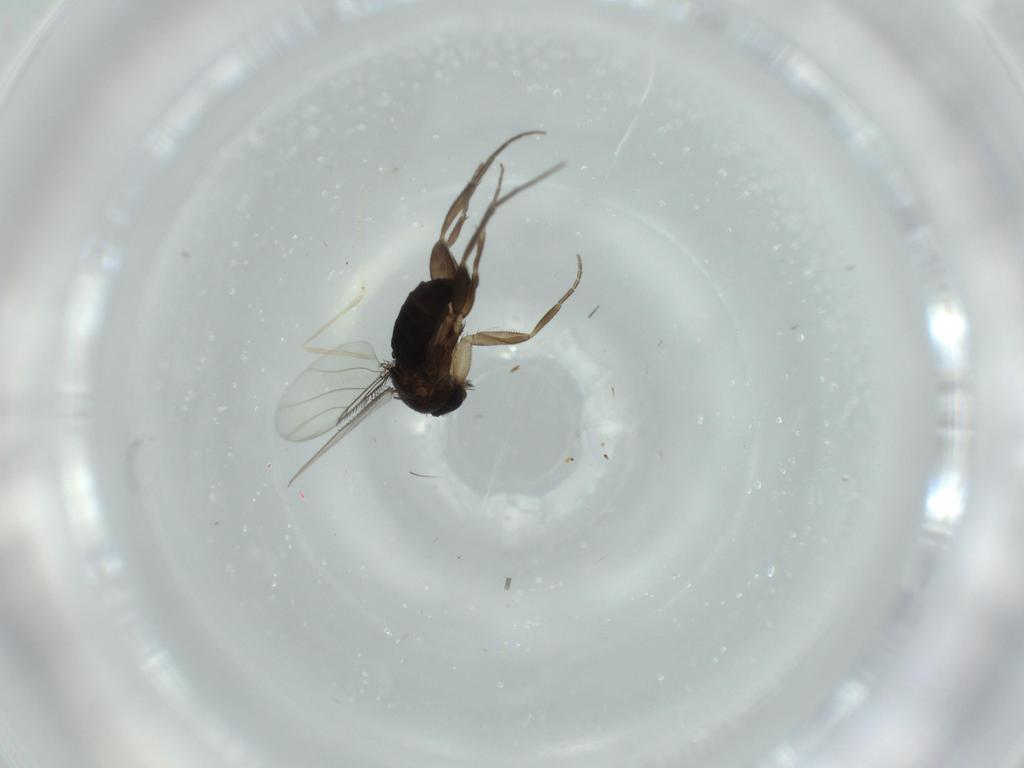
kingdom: Animalia
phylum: Arthropoda
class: Insecta
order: Diptera
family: Phoridae
